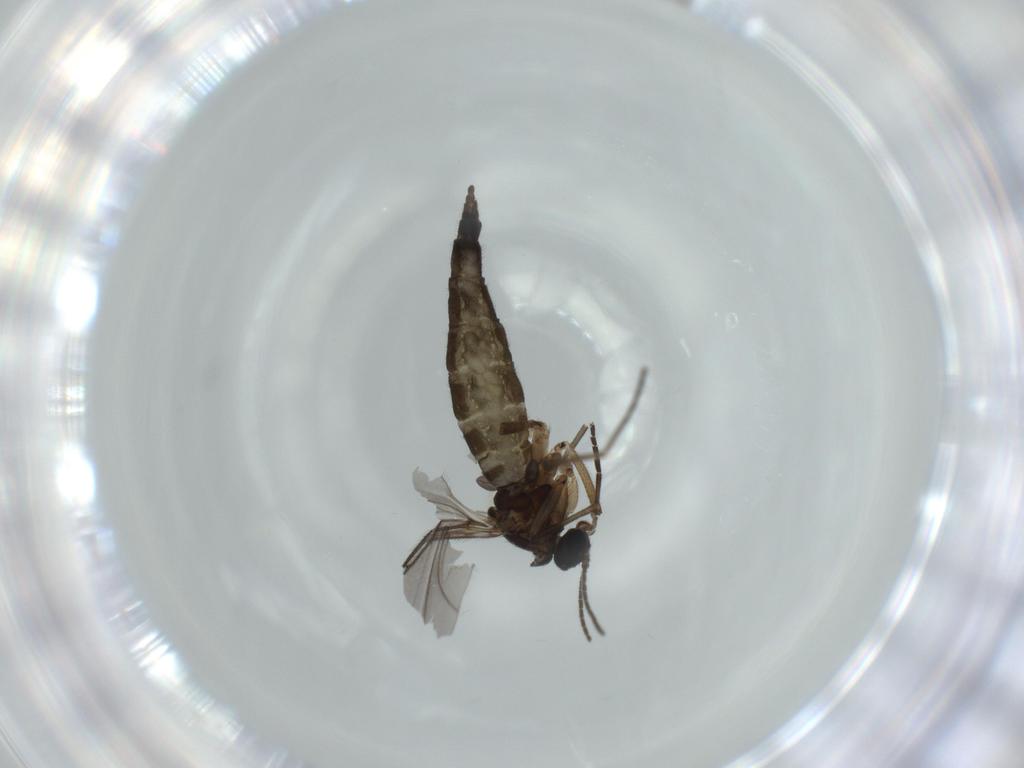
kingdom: Animalia
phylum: Arthropoda
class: Insecta
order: Diptera
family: Sciaridae
